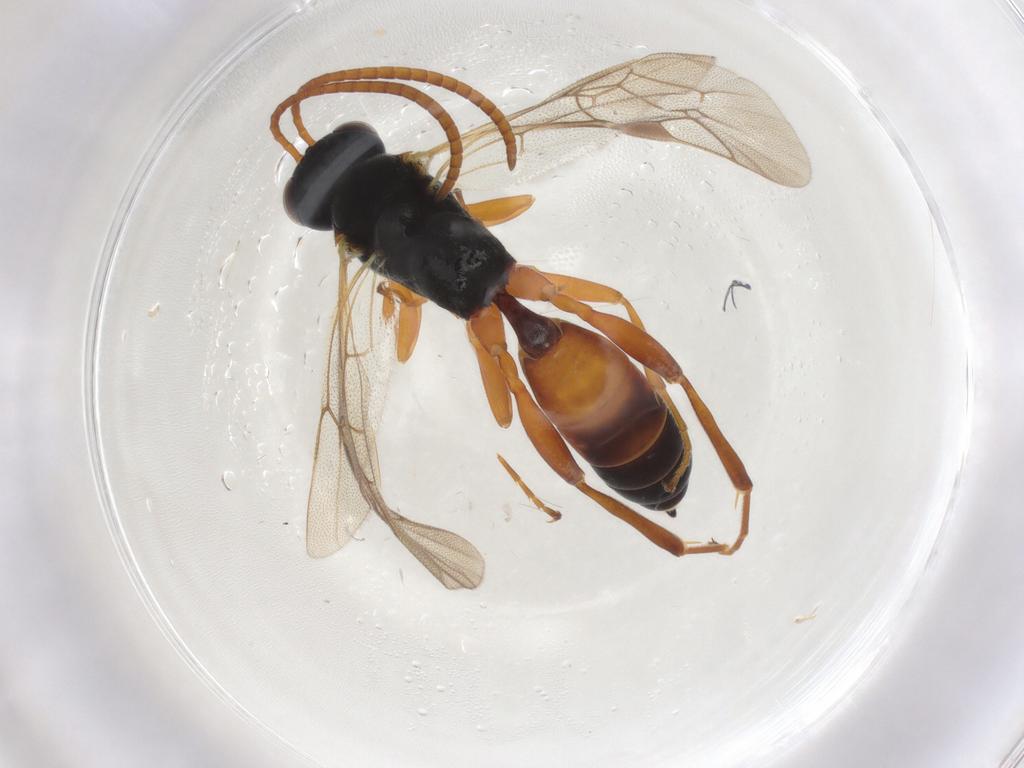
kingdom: Animalia
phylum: Arthropoda
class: Insecta
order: Hymenoptera
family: Ichneumonidae
